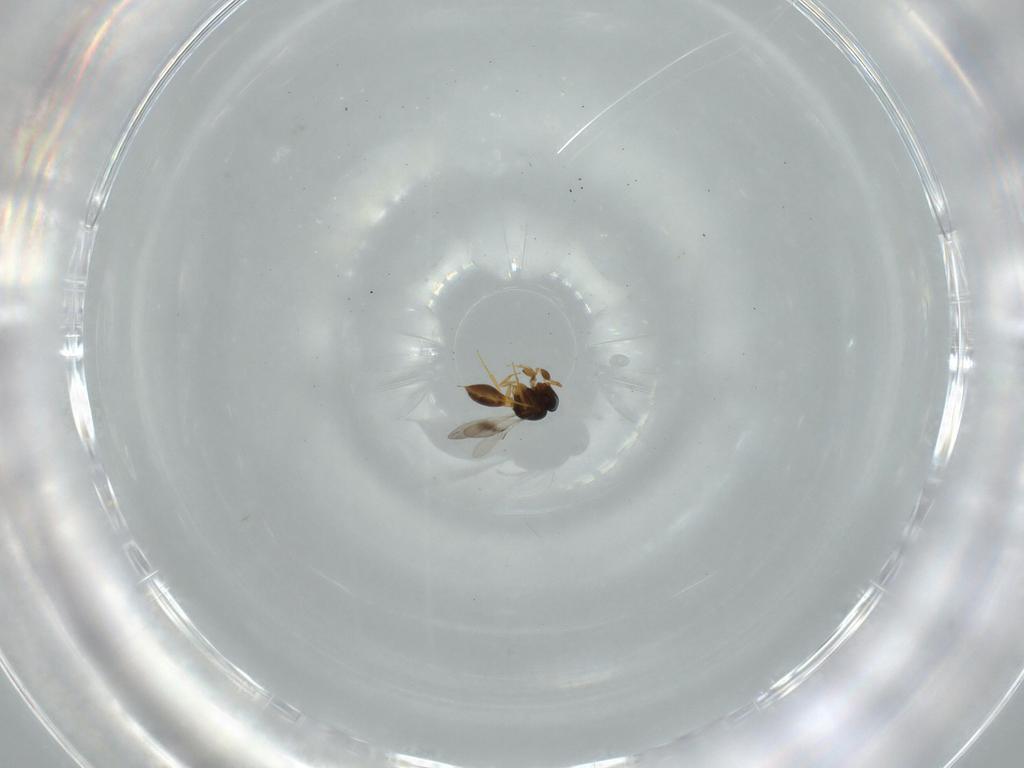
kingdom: Animalia
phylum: Arthropoda
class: Insecta
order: Hymenoptera
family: Scelionidae
